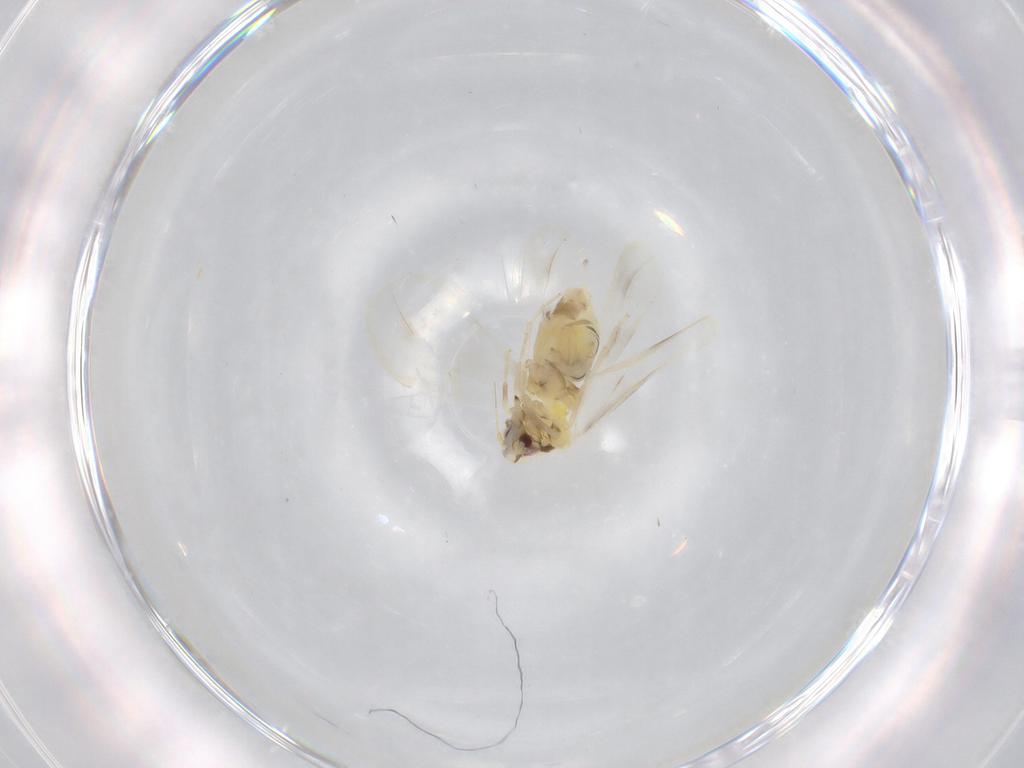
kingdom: Animalia
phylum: Arthropoda
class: Insecta
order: Hemiptera
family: Aleyrodidae
